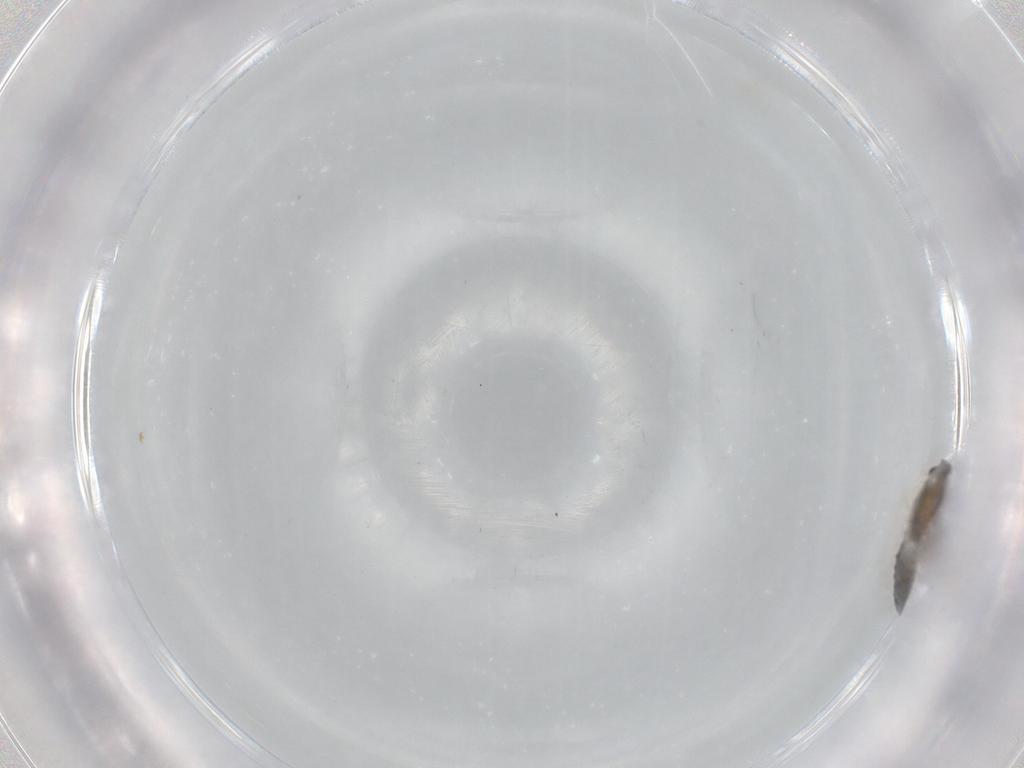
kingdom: Animalia
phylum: Arthropoda
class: Insecta
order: Diptera
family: Chironomidae
